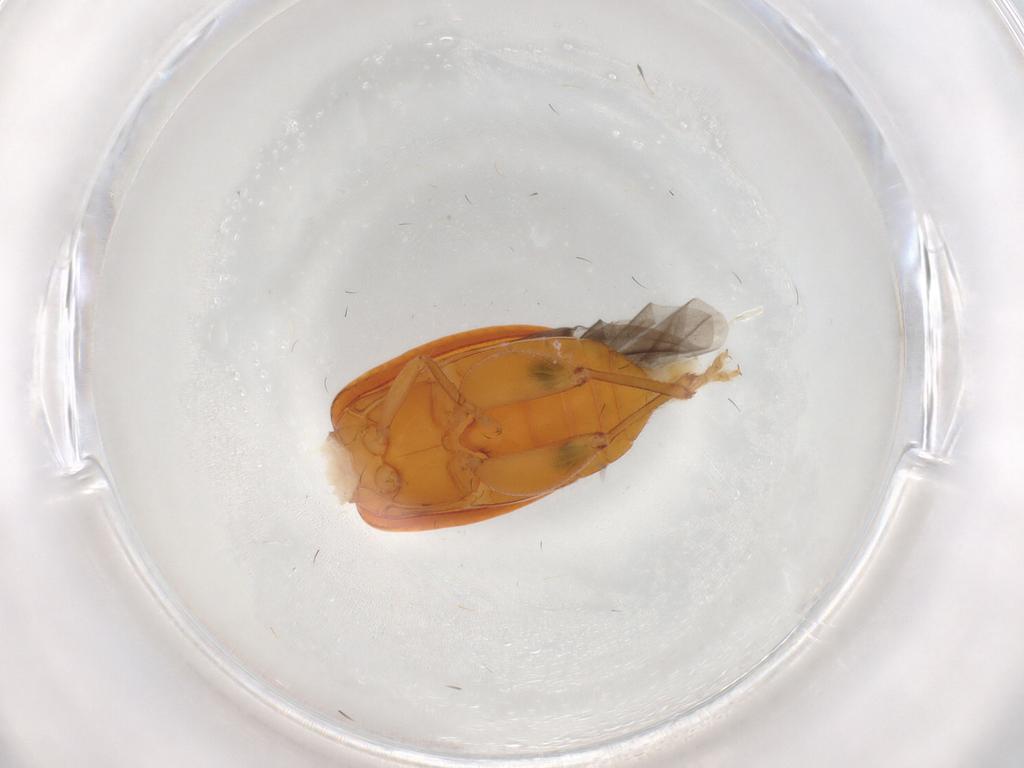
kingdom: Animalia
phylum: Arthropoda
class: Insecta
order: Coleoptera
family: Chrysomelidae
